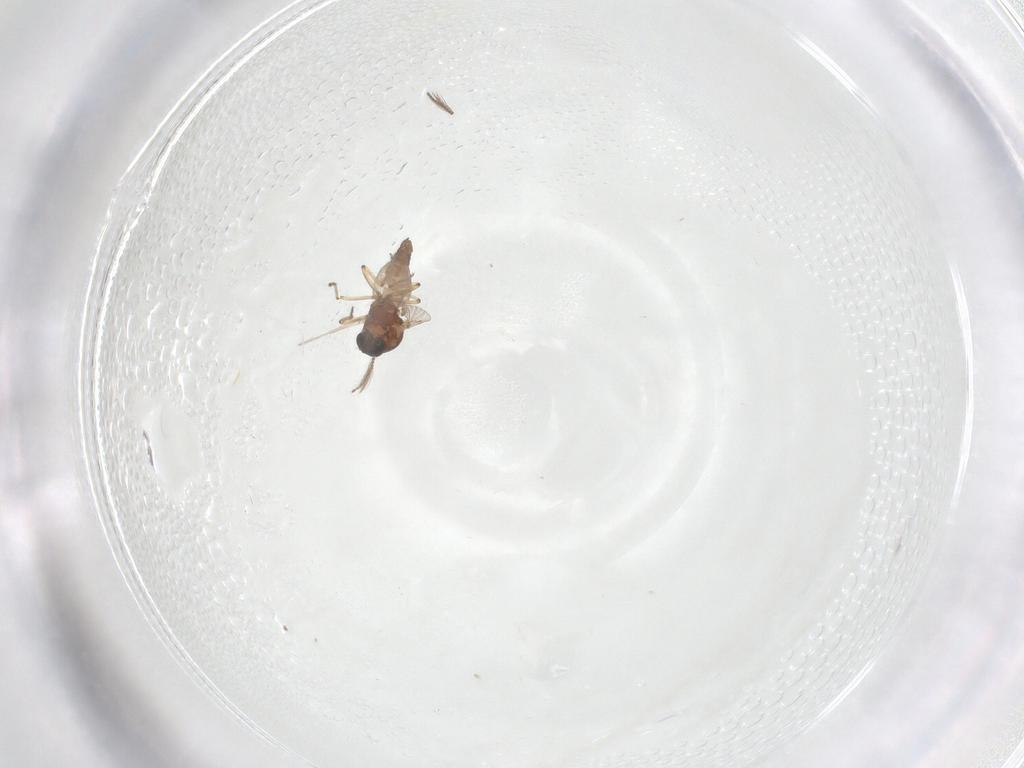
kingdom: Animalia
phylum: Arthropoda
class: Insecta
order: Diptera
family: Ceratopogonidae
